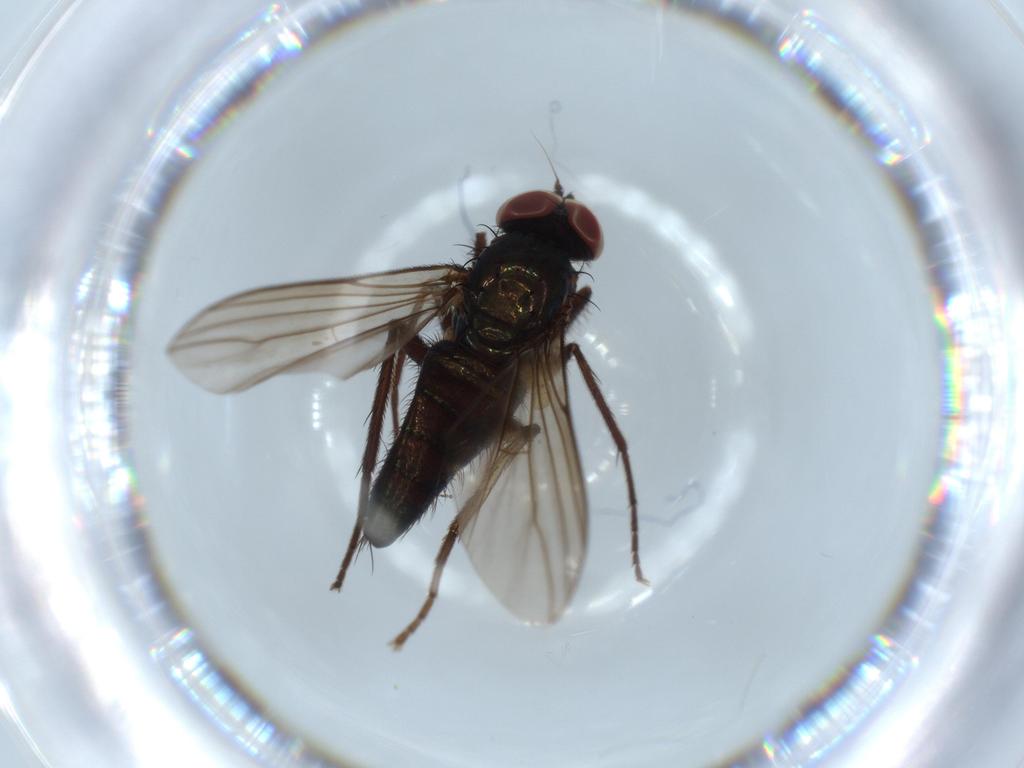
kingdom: Animalia
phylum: Arthropoda
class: Insecta
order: Diptera
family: Dolichopodidae
